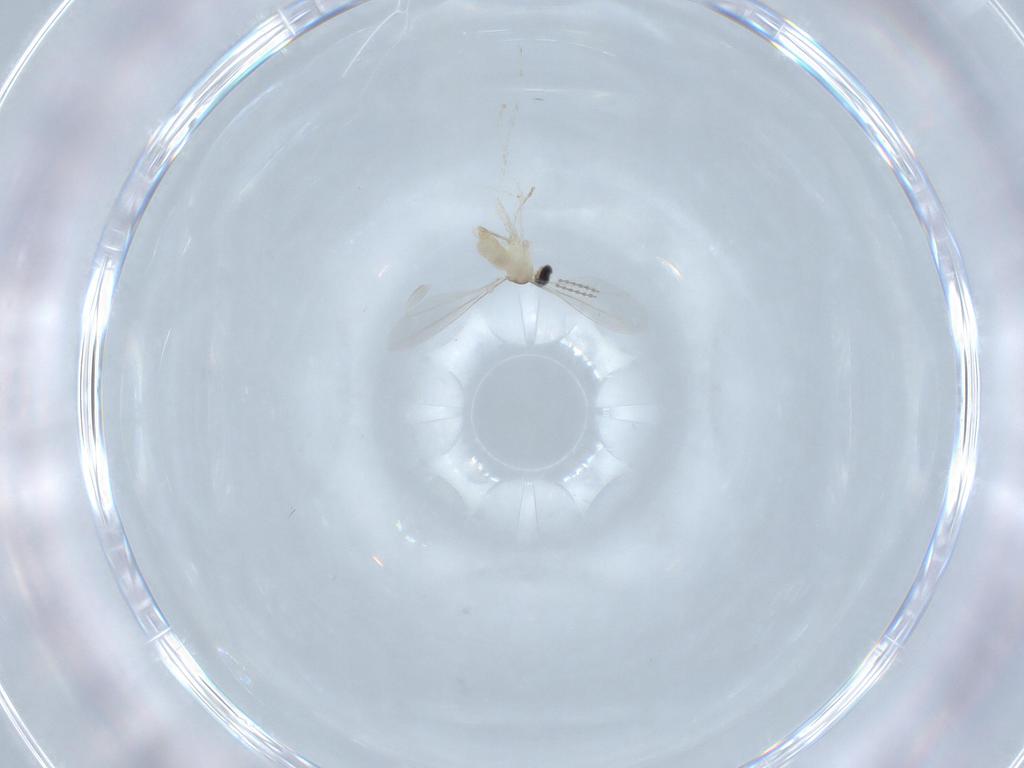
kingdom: Animalia
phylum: Arthropoda
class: Insecta
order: Diptera
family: Cecidomyiidae
